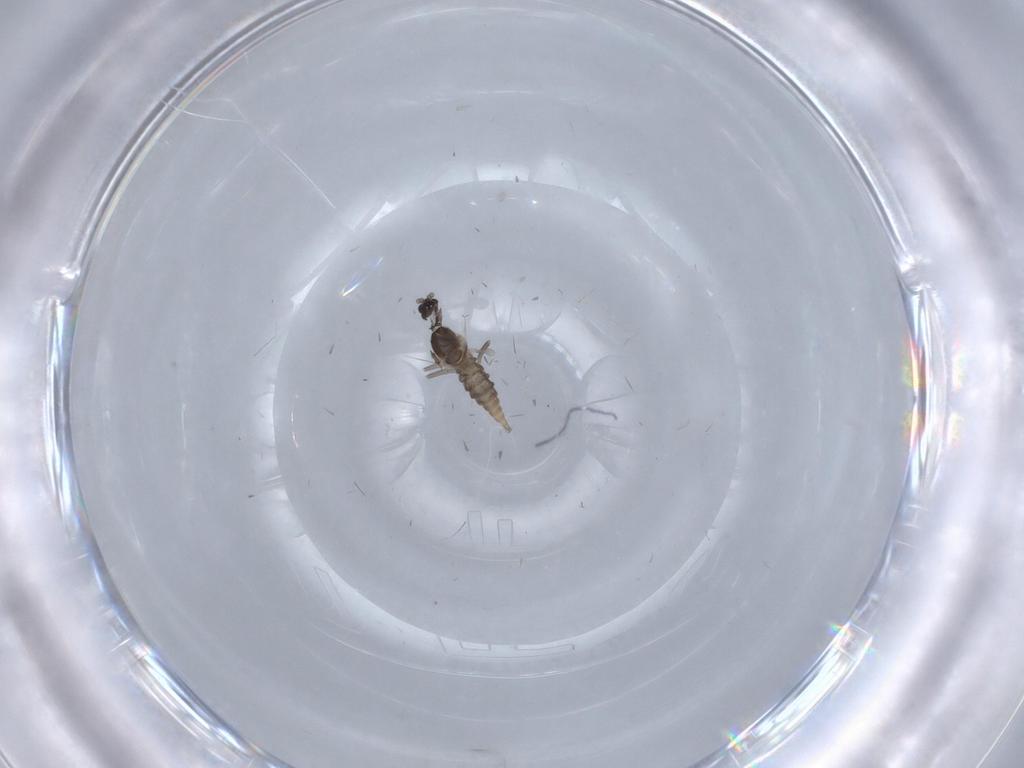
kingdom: Animalia
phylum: Arthropoda
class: Insecta
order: Diptera
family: Cecidomyiidae
